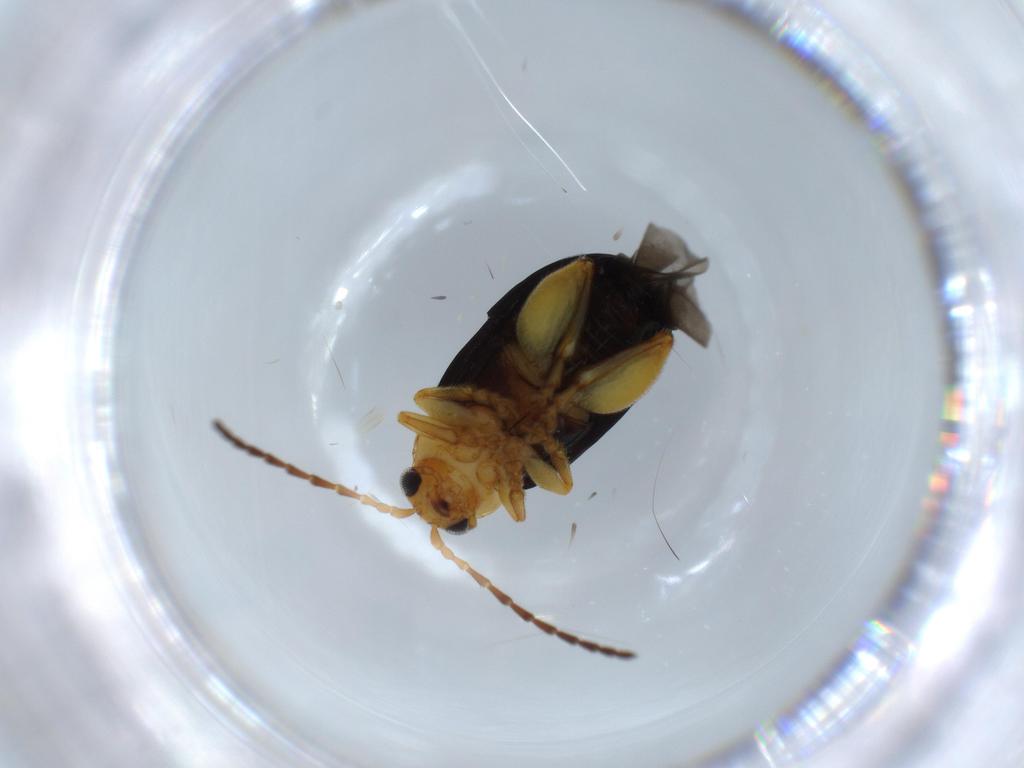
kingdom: Animalia
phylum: Arthropoda
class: Insecta
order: Coleoptera
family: Chrysomelidae
